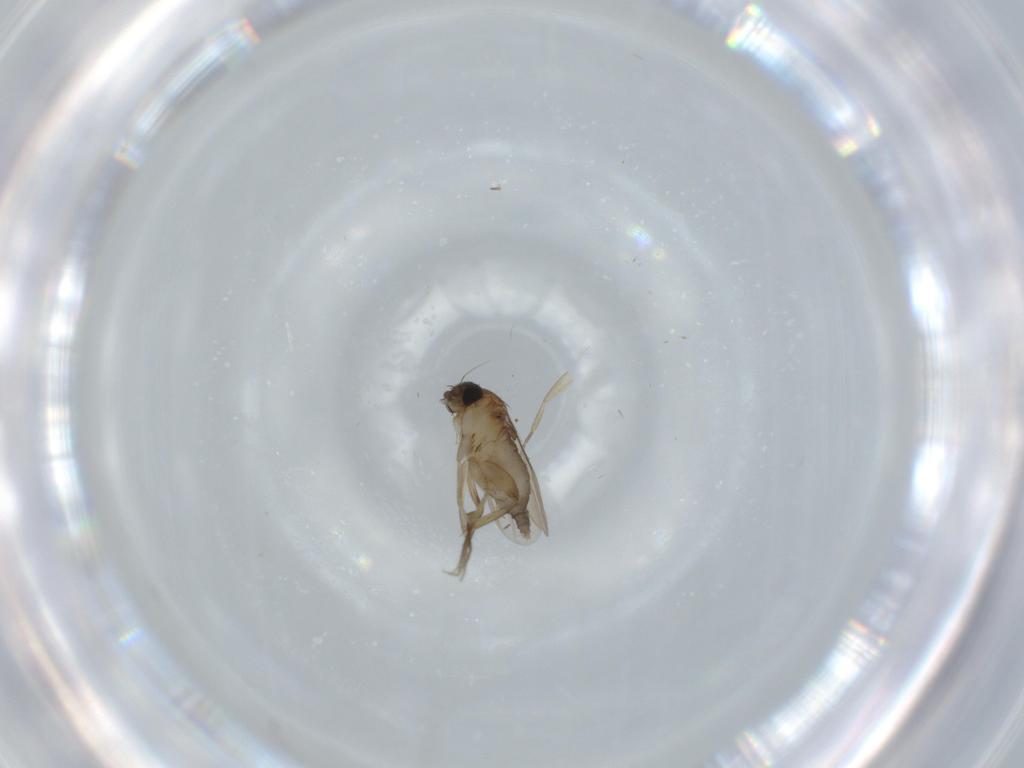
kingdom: Animalia
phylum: Arthropoda
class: Insecta
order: Diptera
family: Phoridae
